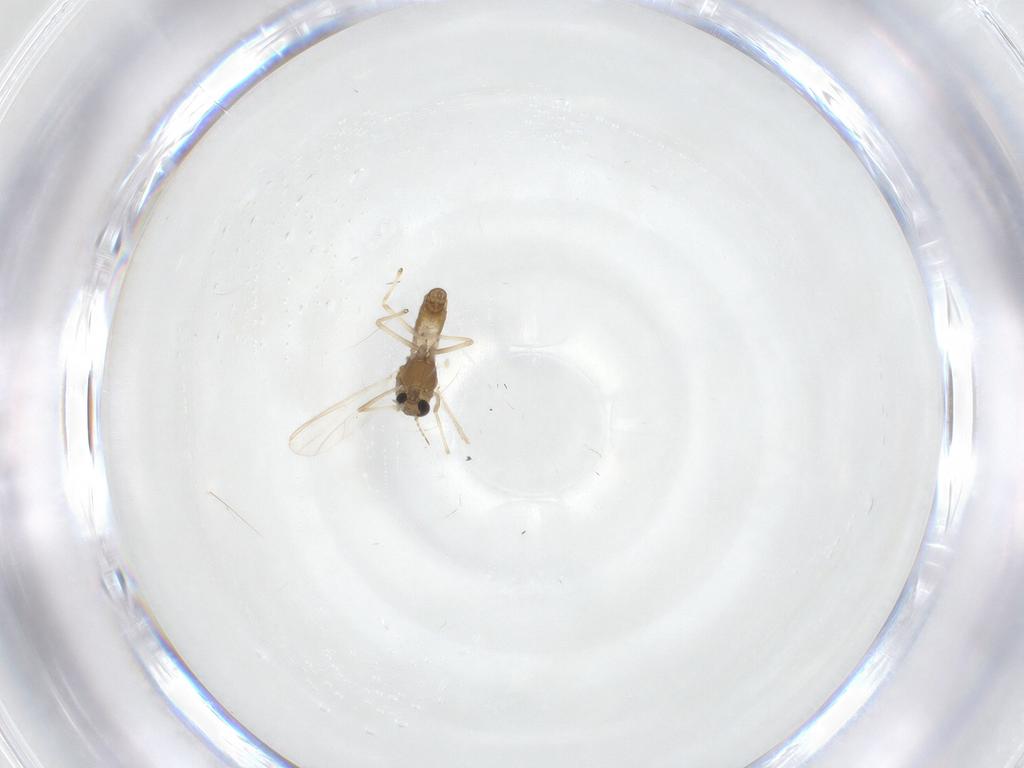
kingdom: Animalia
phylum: Arthropoda
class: Insecta
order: Diptera
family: Chironomidae
